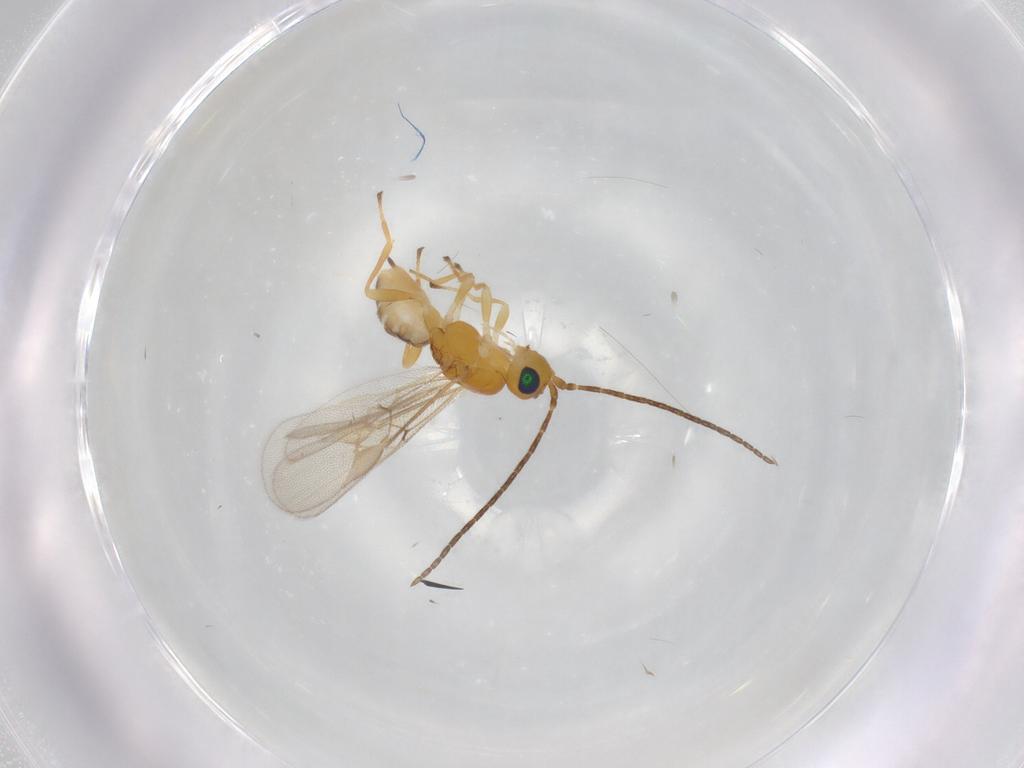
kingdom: Animalia
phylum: Arthropoda
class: Insecta
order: Hymenoptera
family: Braconidae
